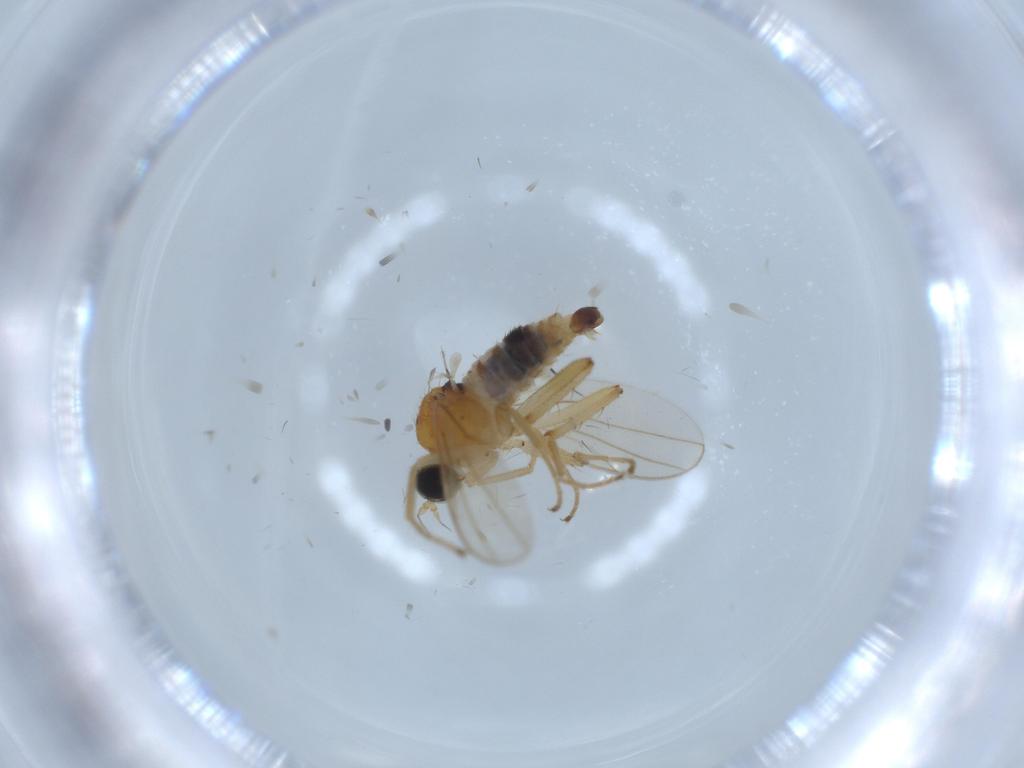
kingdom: Animalia
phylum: Arthropoda
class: Insecta
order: Diptera
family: Hybotidae
